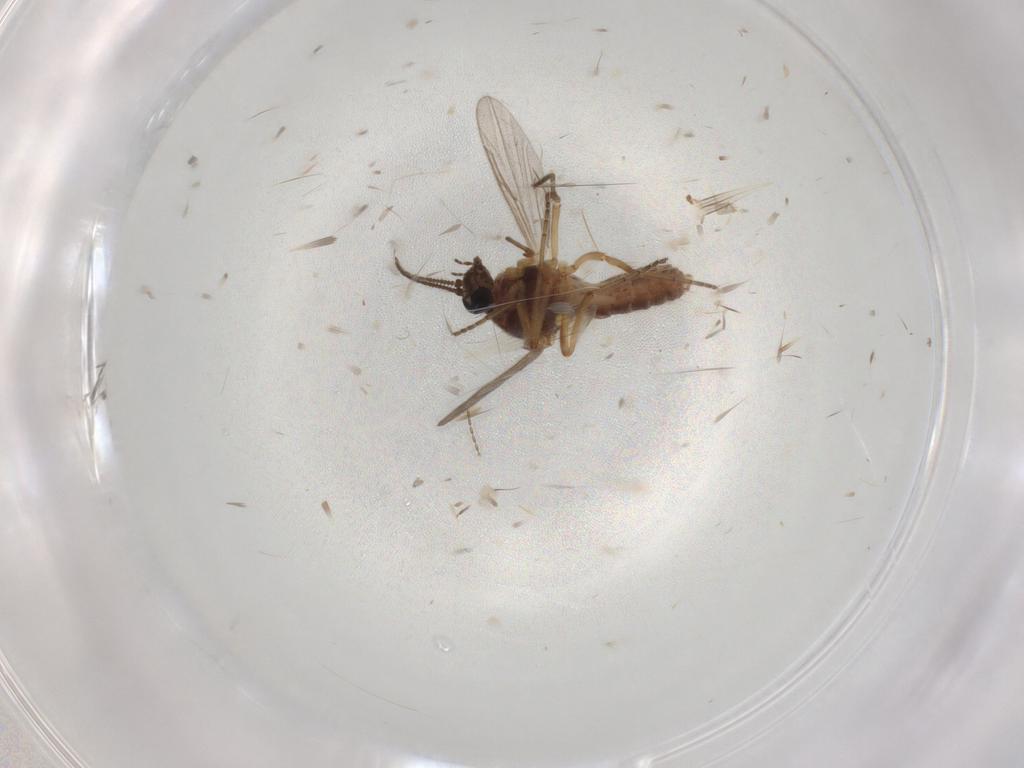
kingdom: Animalia
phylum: Arthropoda
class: Insecta
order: Diptera
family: Ceratopogonidae
